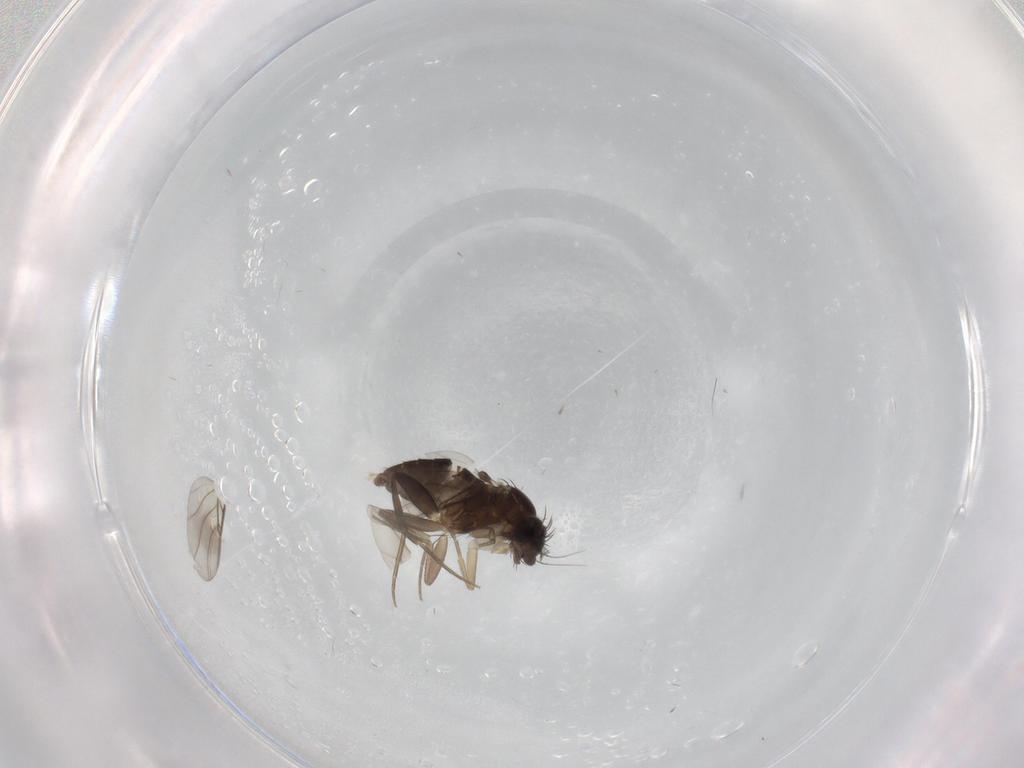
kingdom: Animalia
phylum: Arthropoda
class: Insecta
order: Diptera
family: Phoridae
